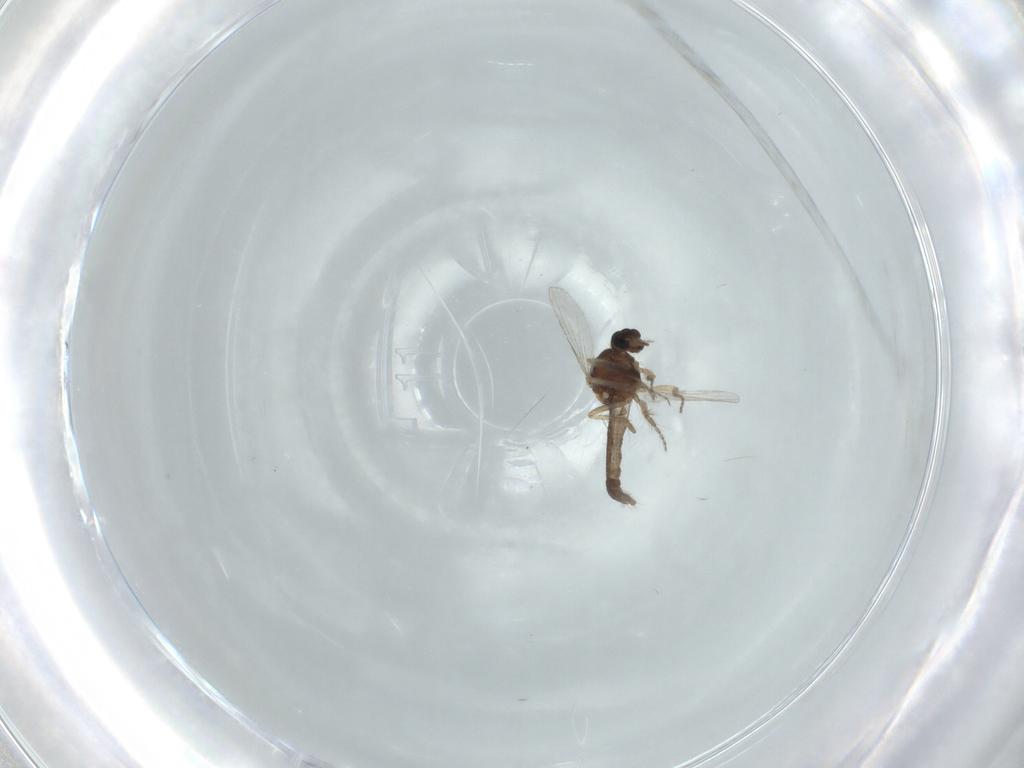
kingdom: Animalia
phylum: Arthropoda
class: Insecta
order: Diptera
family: Ceratopogonidae
